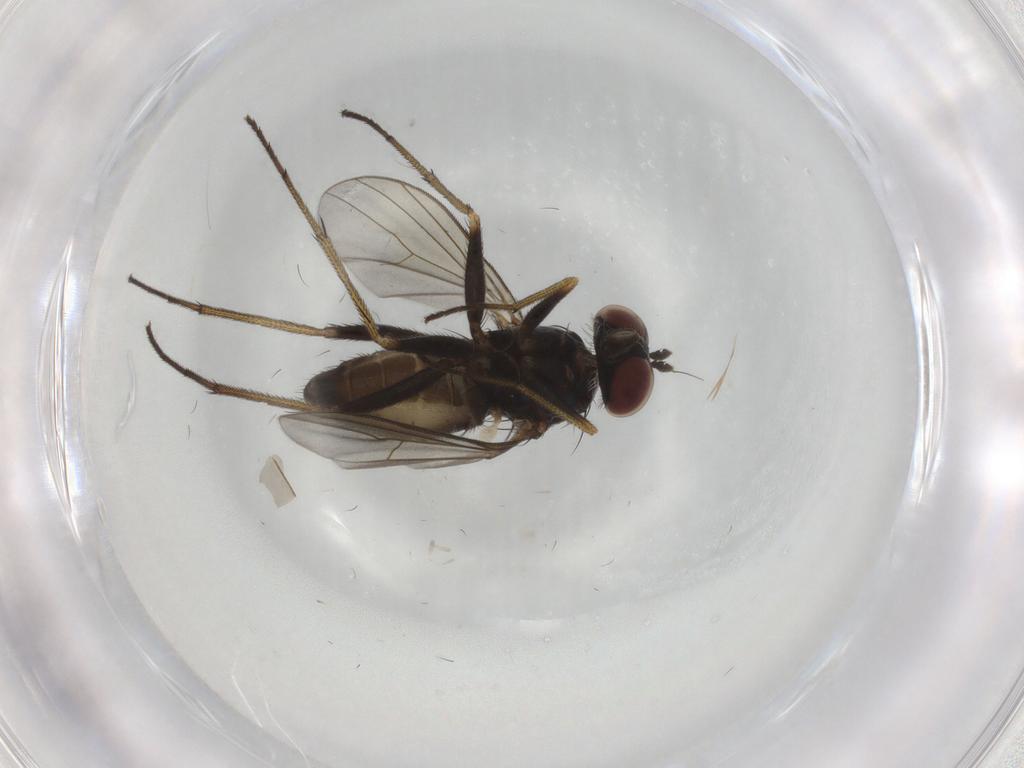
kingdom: Animalia
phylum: Arthropoda
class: Insecta
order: Diptera
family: Dolichopodidae
